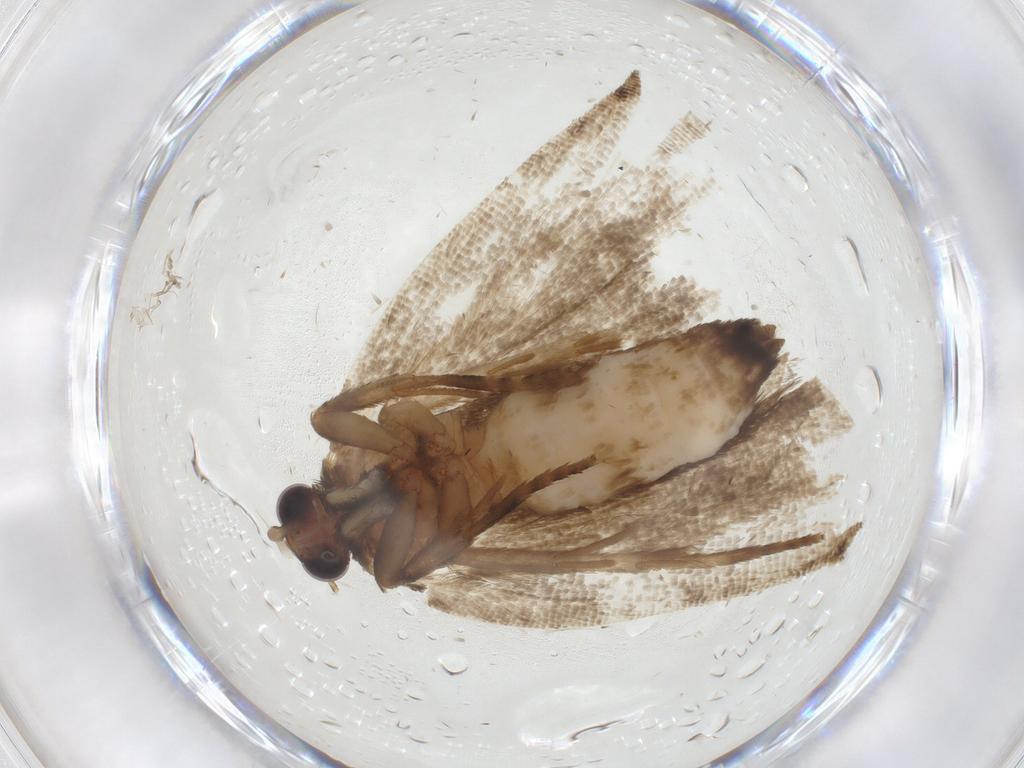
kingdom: Animalia
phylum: Arthropoda
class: Insecta
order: Lepidoptera
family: Tortricidae
